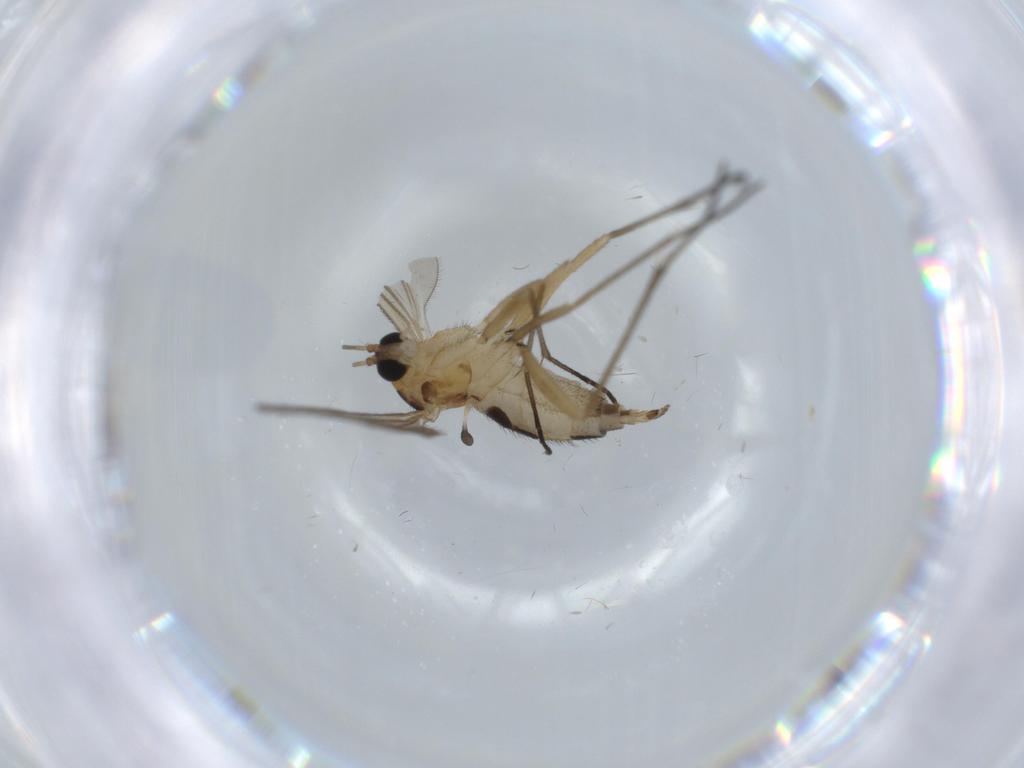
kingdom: Animalia
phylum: Arthropoda
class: Insecta
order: Diptera
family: Sciaridae
